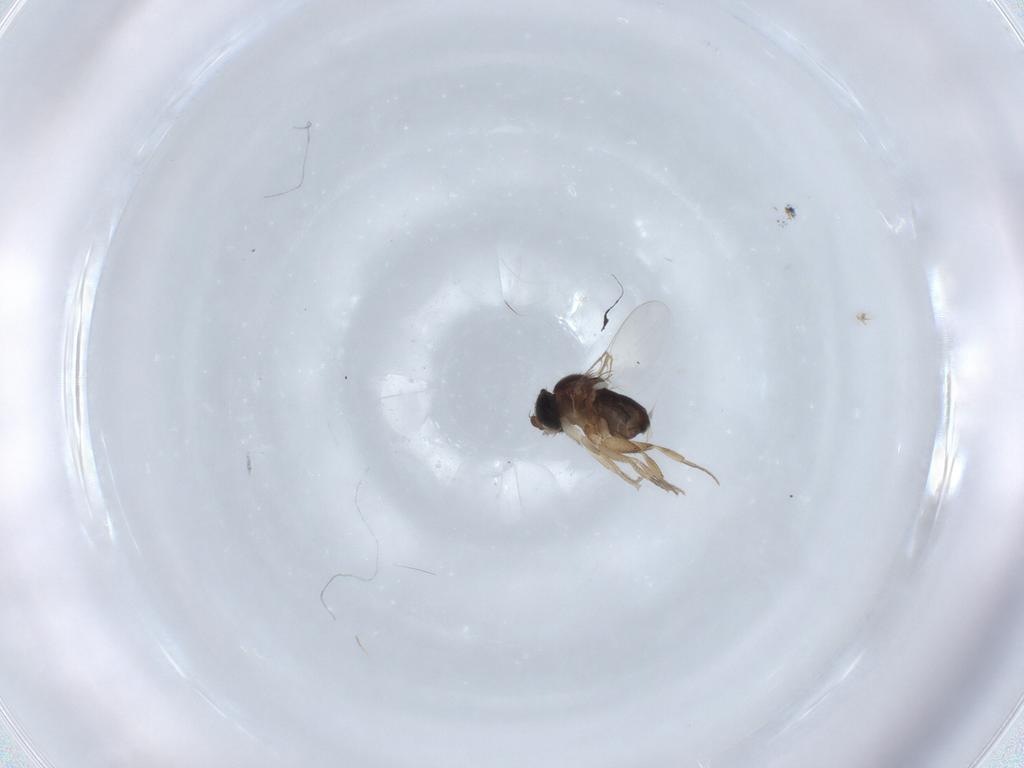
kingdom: Animalia
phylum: Arthropoda
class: Insecta
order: Diptera
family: Phoridae
